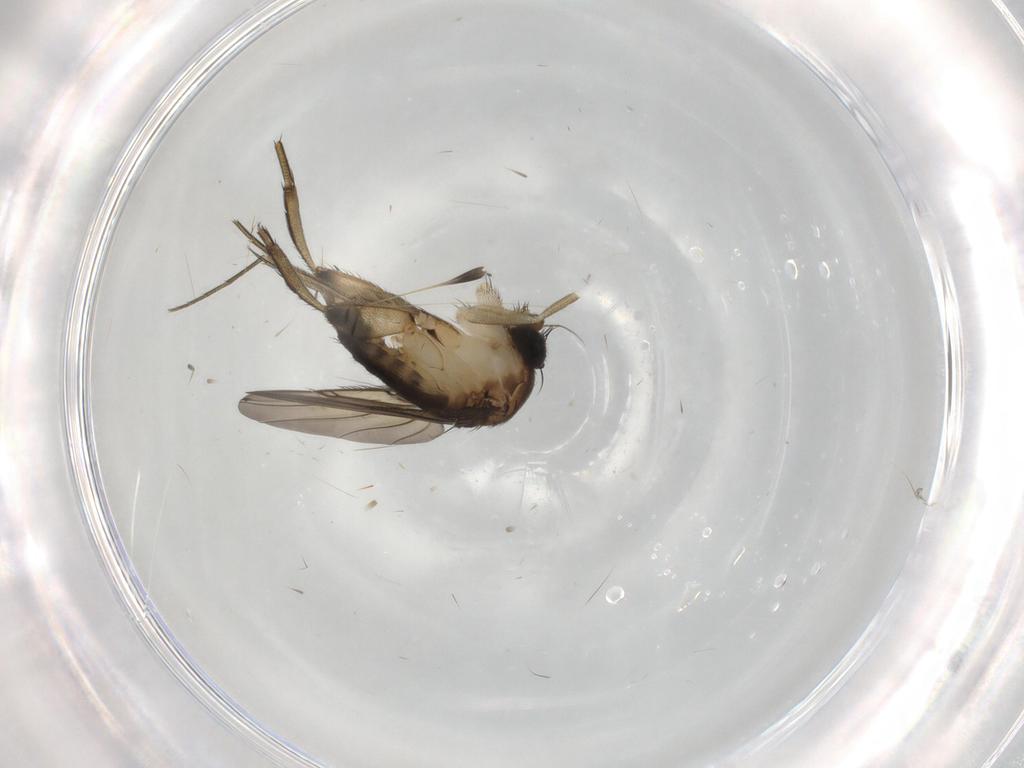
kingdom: Animalia
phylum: Arthropoda
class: Insecta
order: Diptera
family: Phoridae
